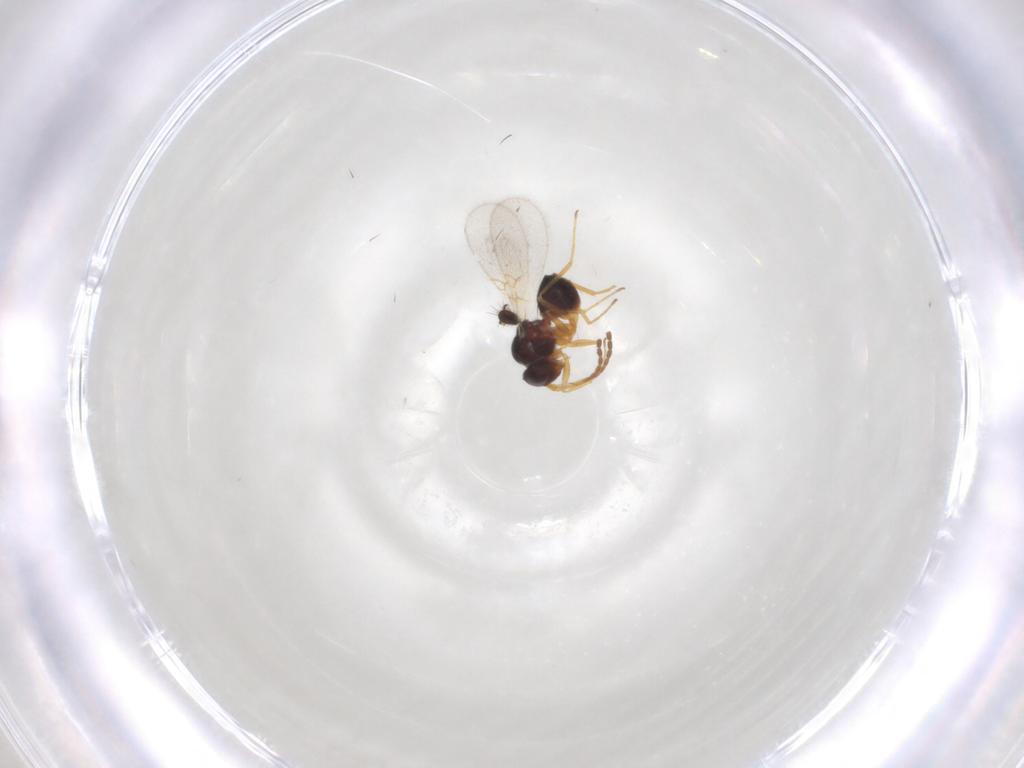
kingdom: Animalia
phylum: Arthropoda
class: Insecta
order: Hymenoptera
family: Figitidae
